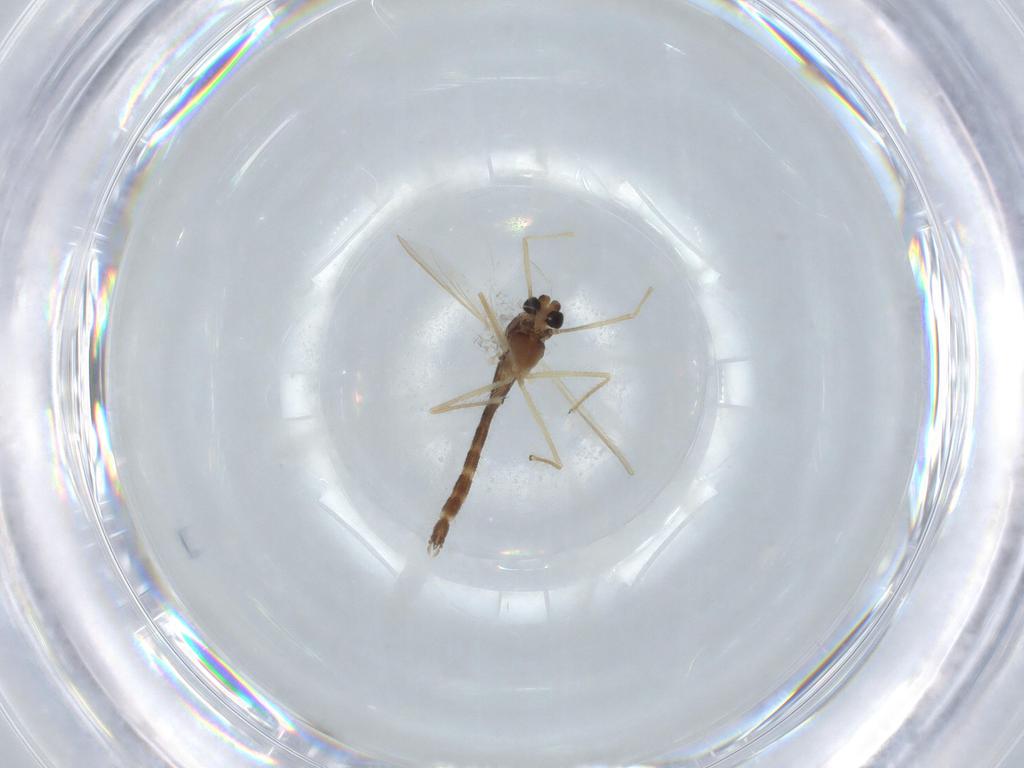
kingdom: Animalia
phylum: Arthropoda
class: Insecta
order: Diptera
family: Chironomidae
